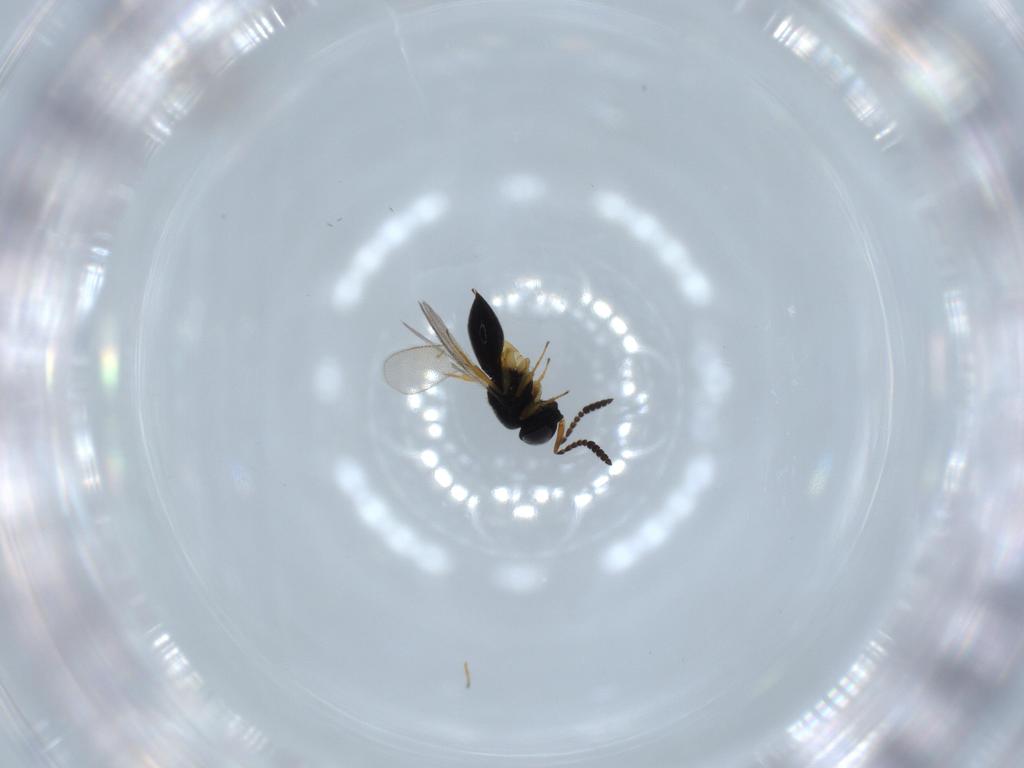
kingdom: Animalia
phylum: Arthropoda
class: Insecta
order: Hymenoptera
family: Scelionidae
